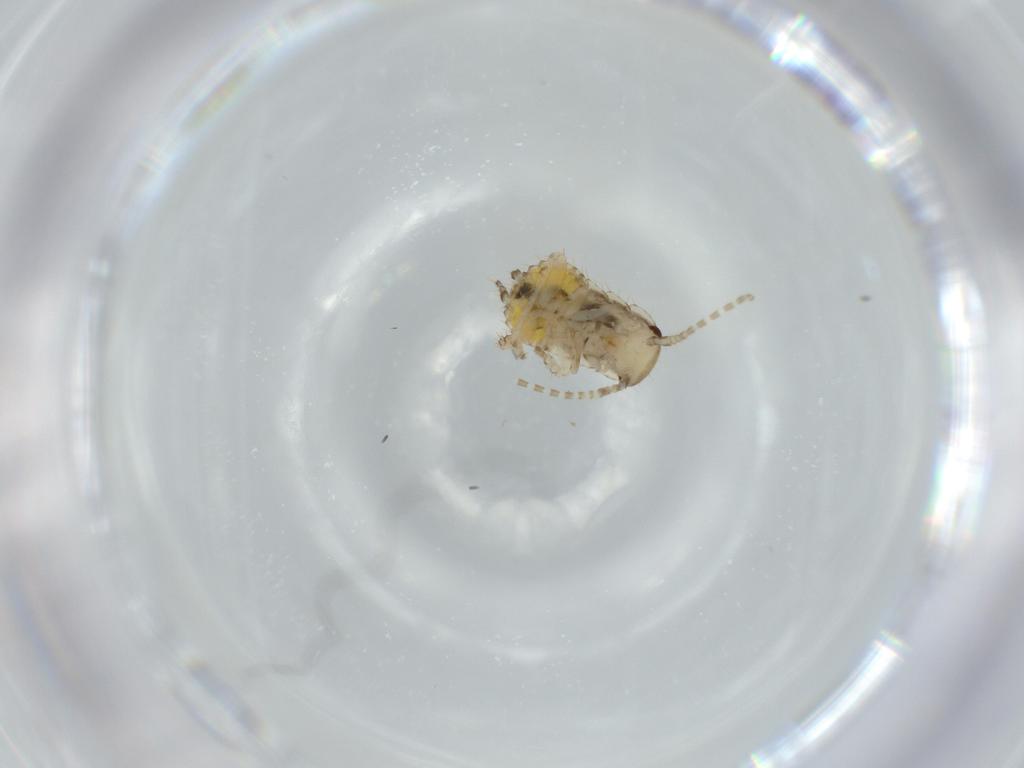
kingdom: Animalia
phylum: Arthropoda
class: Insecta
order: Blattodea
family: Ectobiidae
